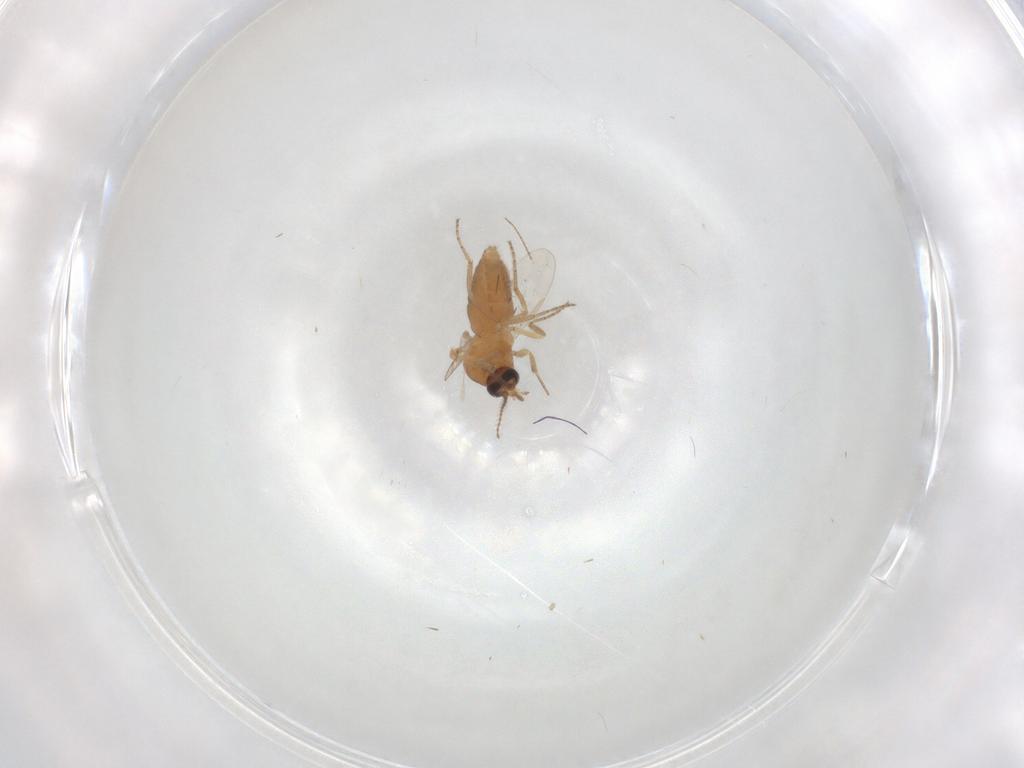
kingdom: Animalia
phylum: Arthropoda
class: Insecta
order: Diptera
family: Ceratopogonidae
